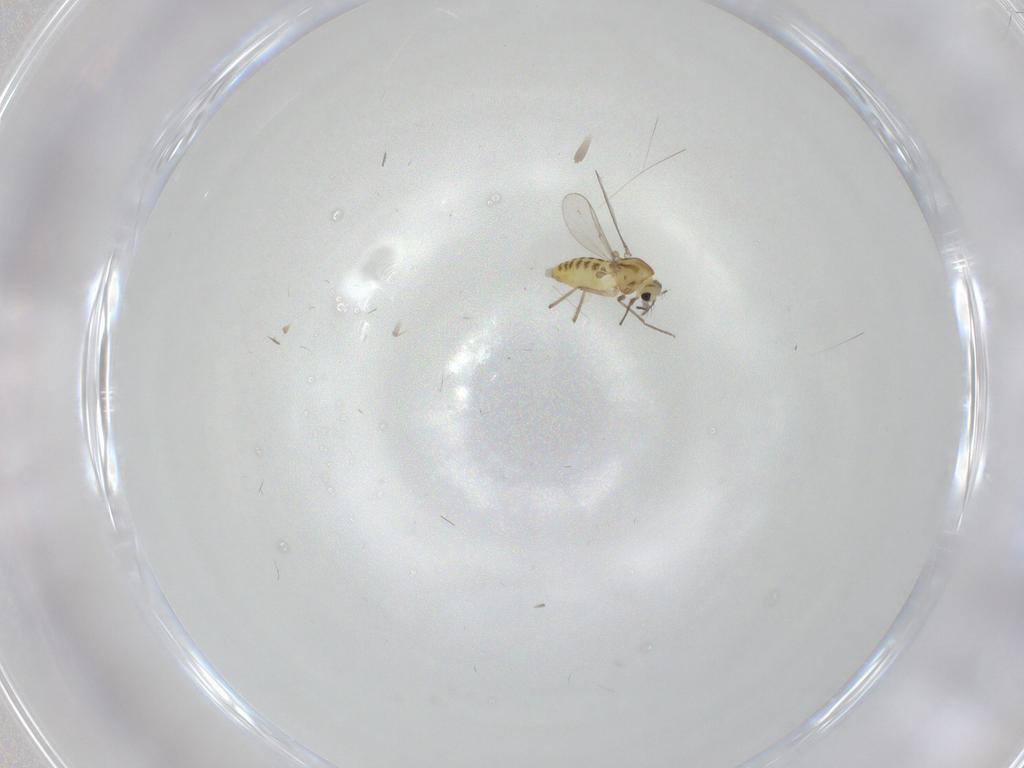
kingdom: Animalia
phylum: Arthropoda
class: Insecta
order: Diptera
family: Chironomidae
